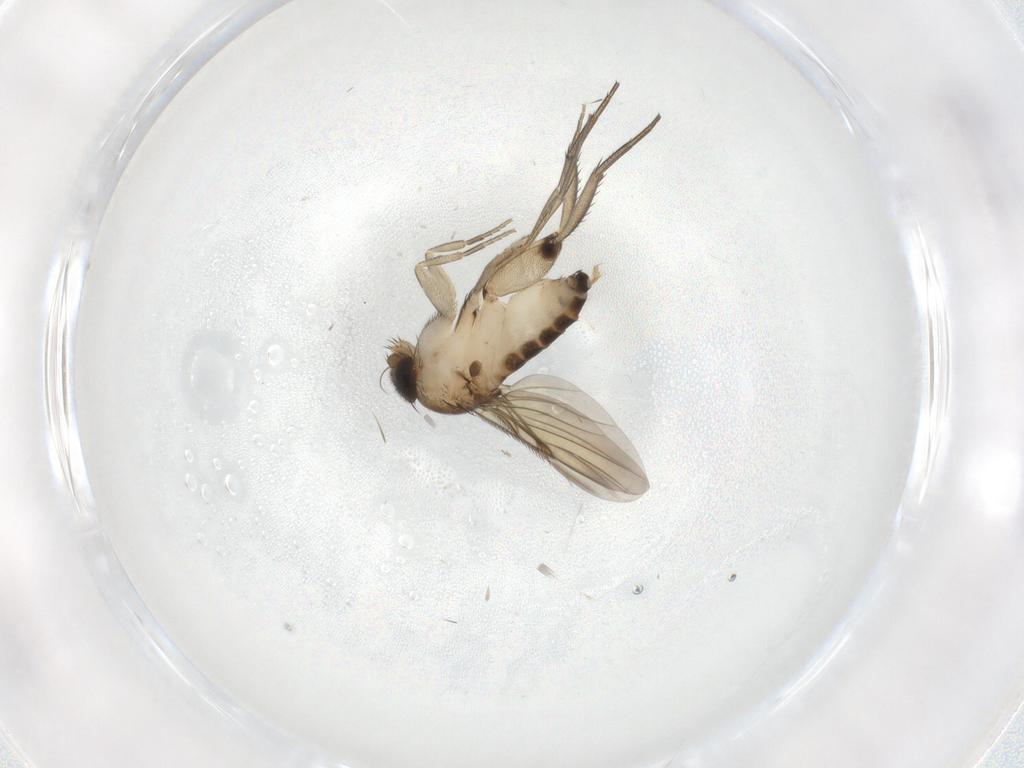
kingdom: Animalia
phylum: Arthropoda
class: Insecta
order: Diptera
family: Phoridae
